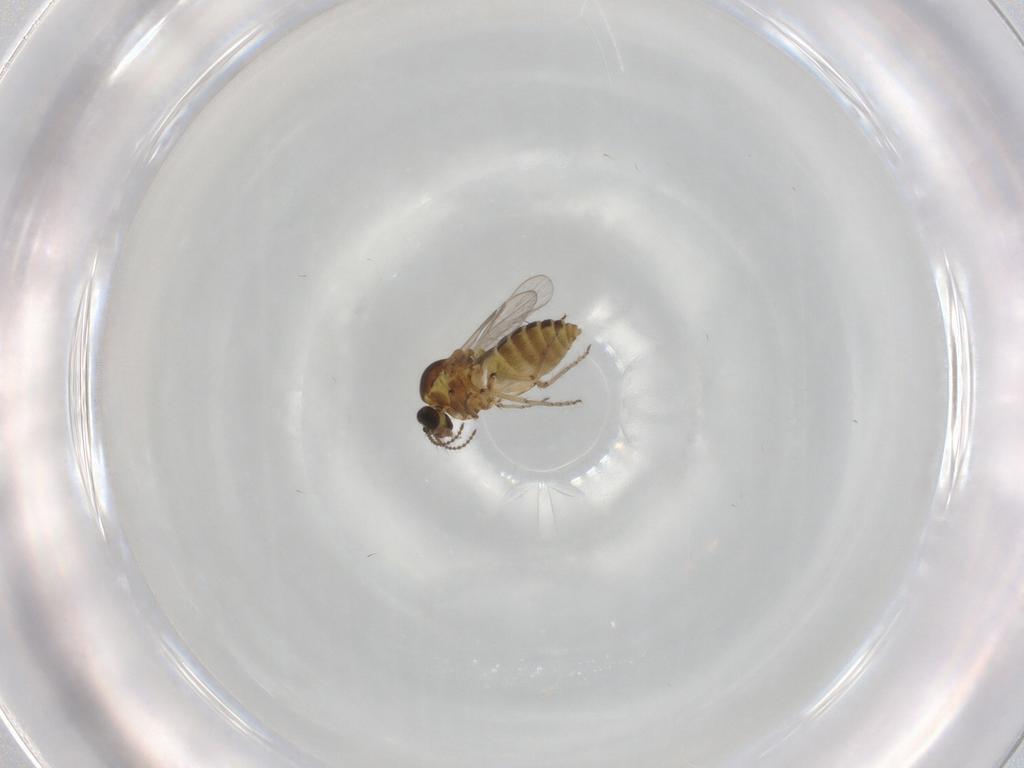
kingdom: Animalia
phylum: Arthropoda
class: Insecta
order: Diptera
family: Ceratopogonidae
